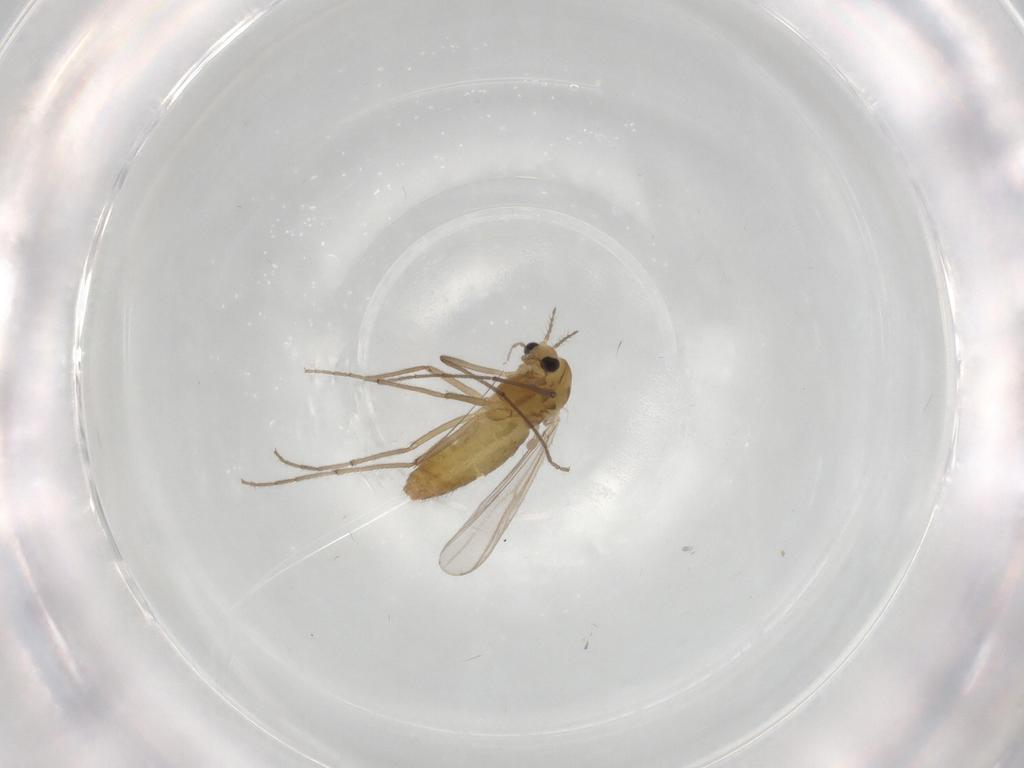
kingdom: Animalia
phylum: Arthropoda
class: Insecta
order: Diptera
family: Chironomidae
